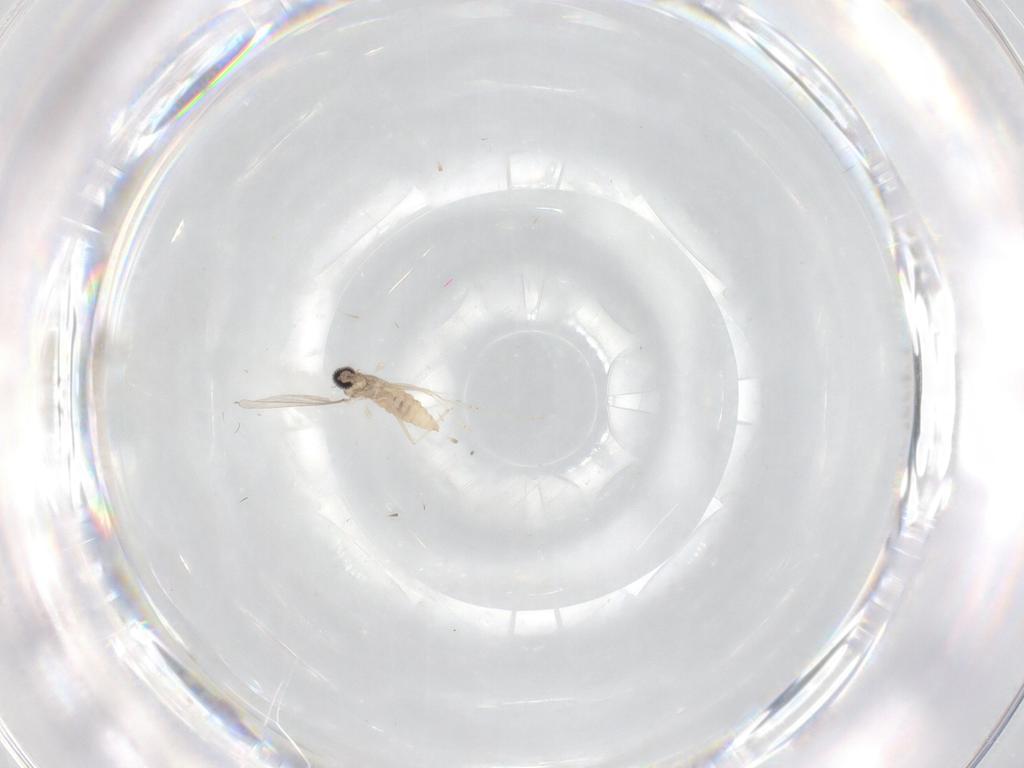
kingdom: Animalia
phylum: Arthropoda
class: Insecta
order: Diptera
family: Cecidomyiidae
